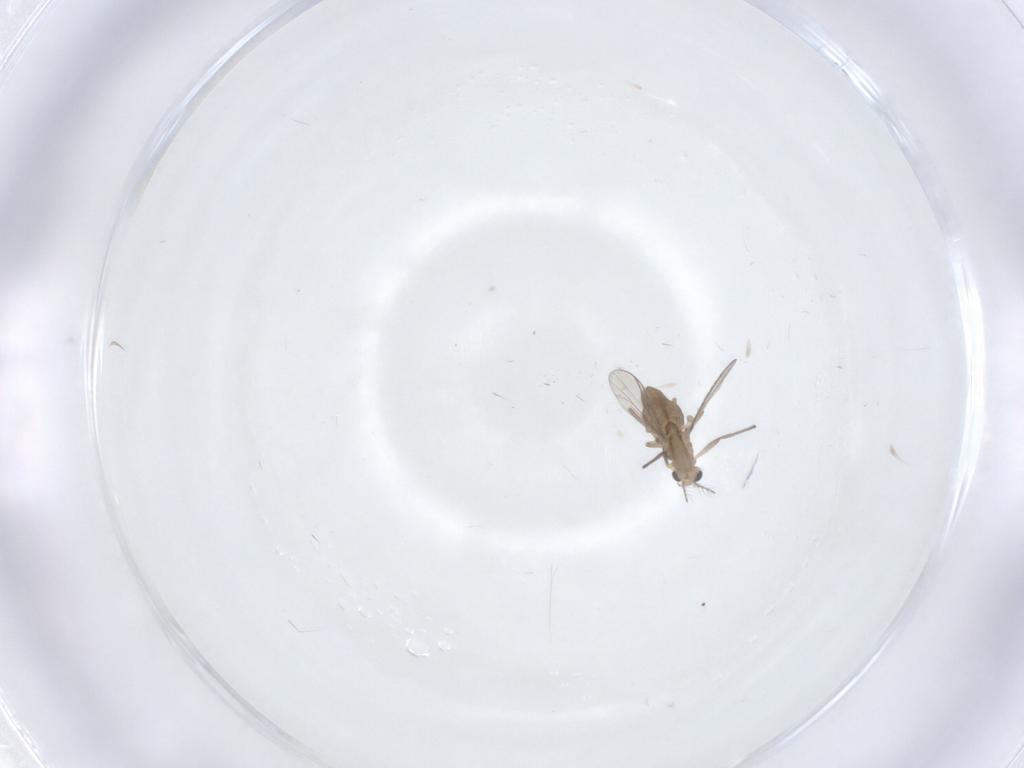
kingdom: Animalia
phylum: Arthropoda
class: Insecta
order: Diptera
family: Chironomidae
